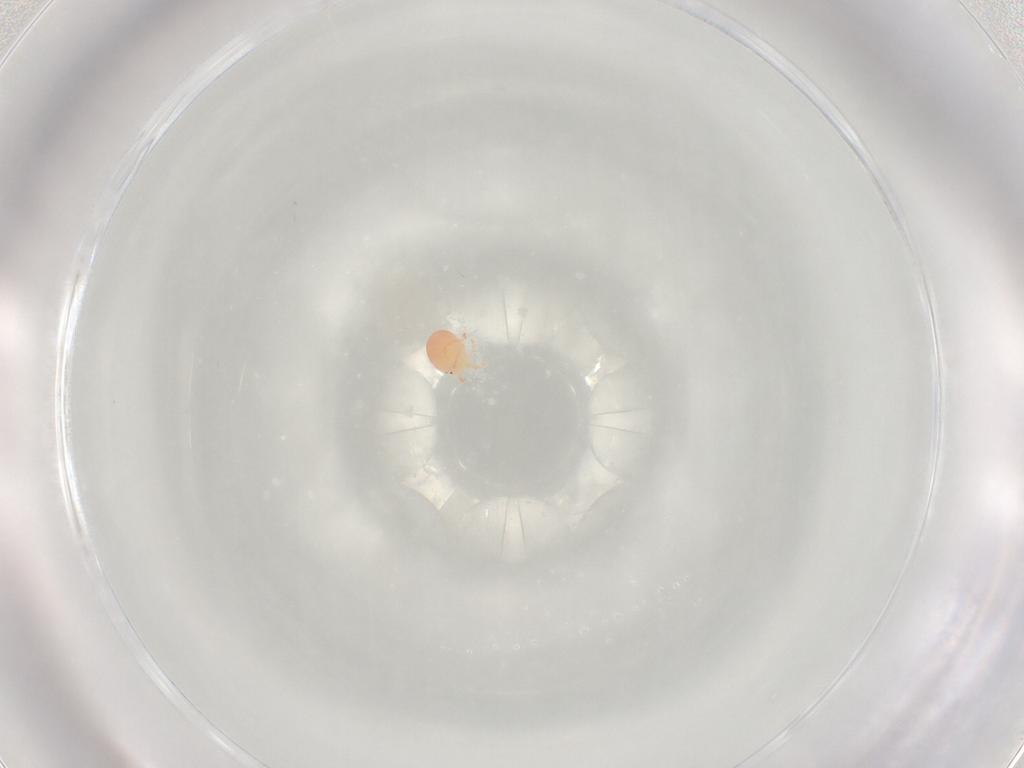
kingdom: Animalia
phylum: Arthropoda
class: Arachnida
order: Trombidiformes
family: Hydryphantidae
